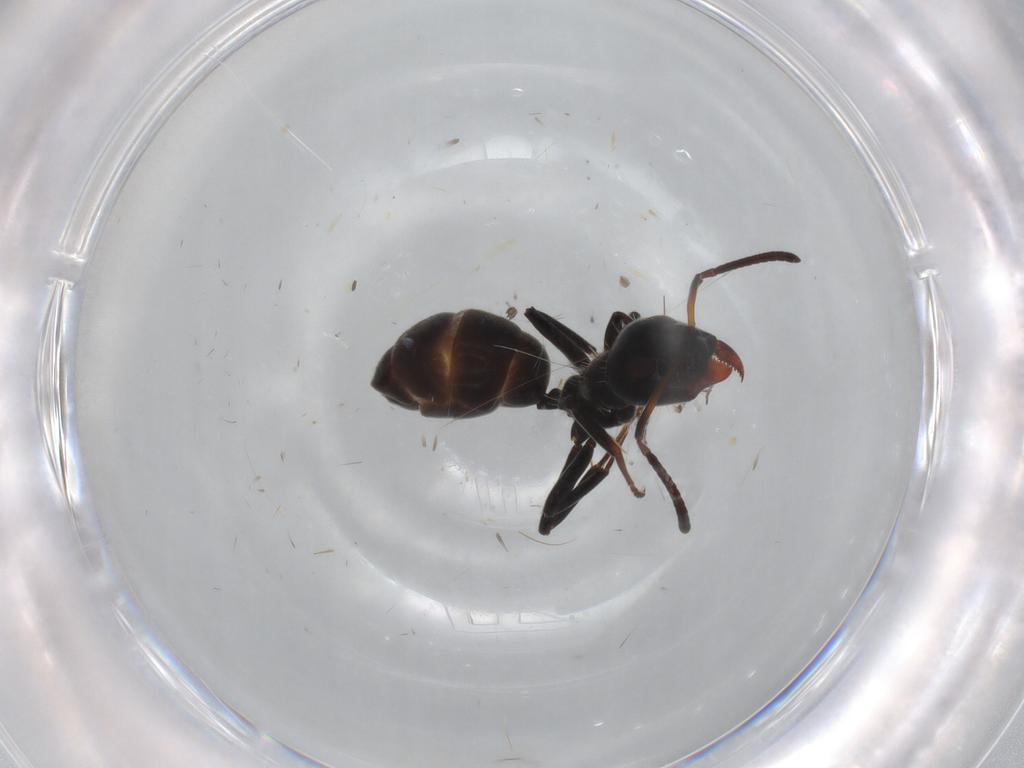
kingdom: Animalia
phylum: Arthropoda
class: Insecta
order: Hymenoptera
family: Formicidae
